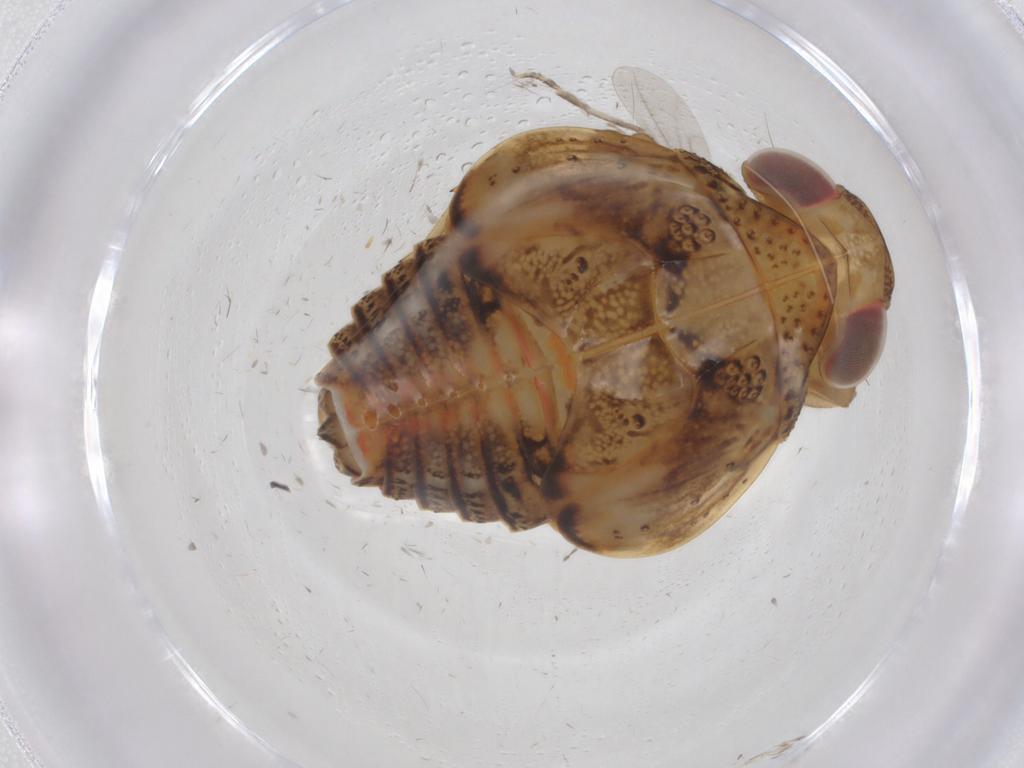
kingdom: Animalia
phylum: Arthropoda
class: Insecta
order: Hemiptera
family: Issidae
